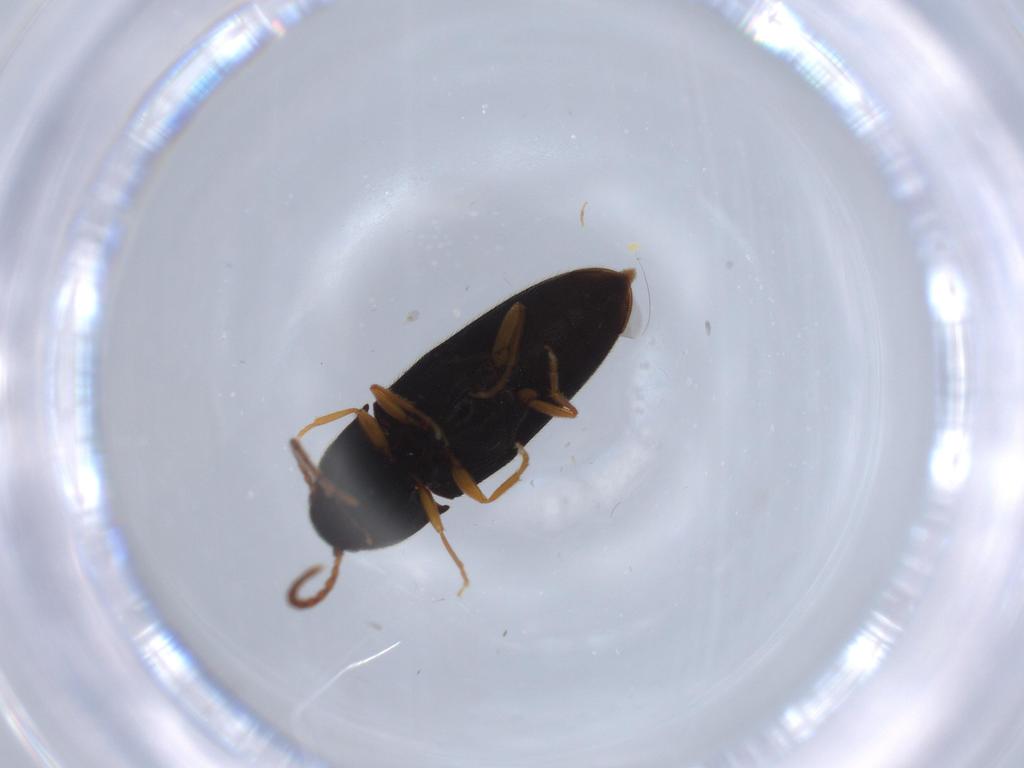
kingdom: Animalia
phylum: Arthropoda
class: Insecta
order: Coleoptera
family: Elateridae
